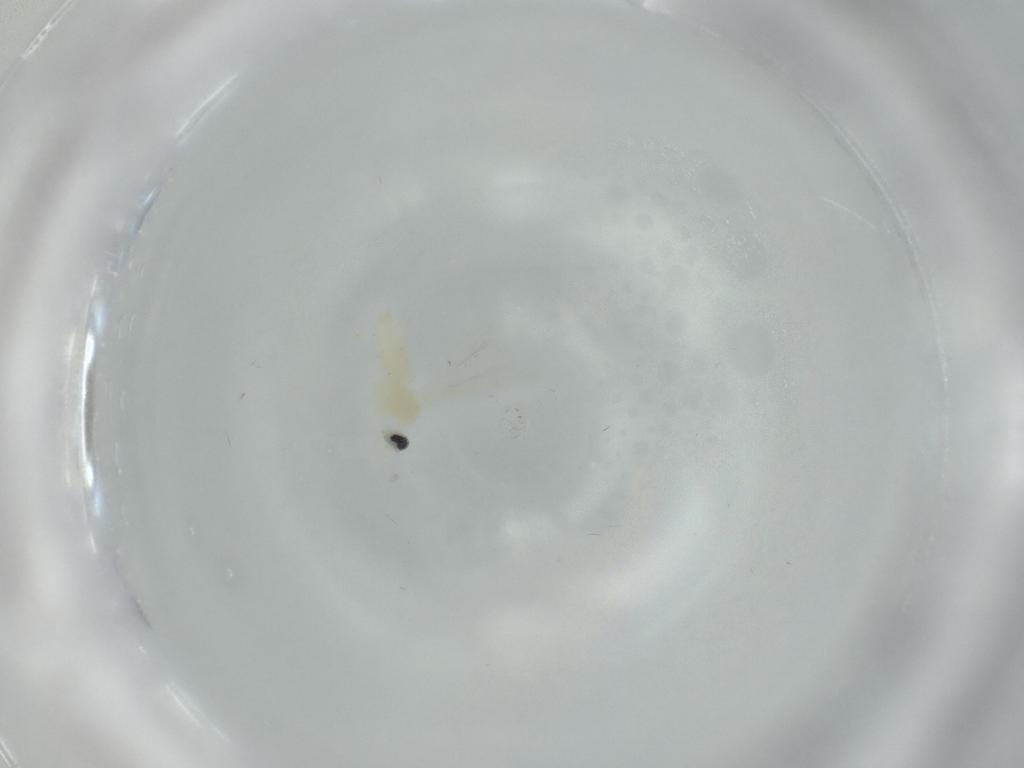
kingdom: Animalia
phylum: Arthropoda
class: Insecta
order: Diptera
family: Cecidomyiidae
